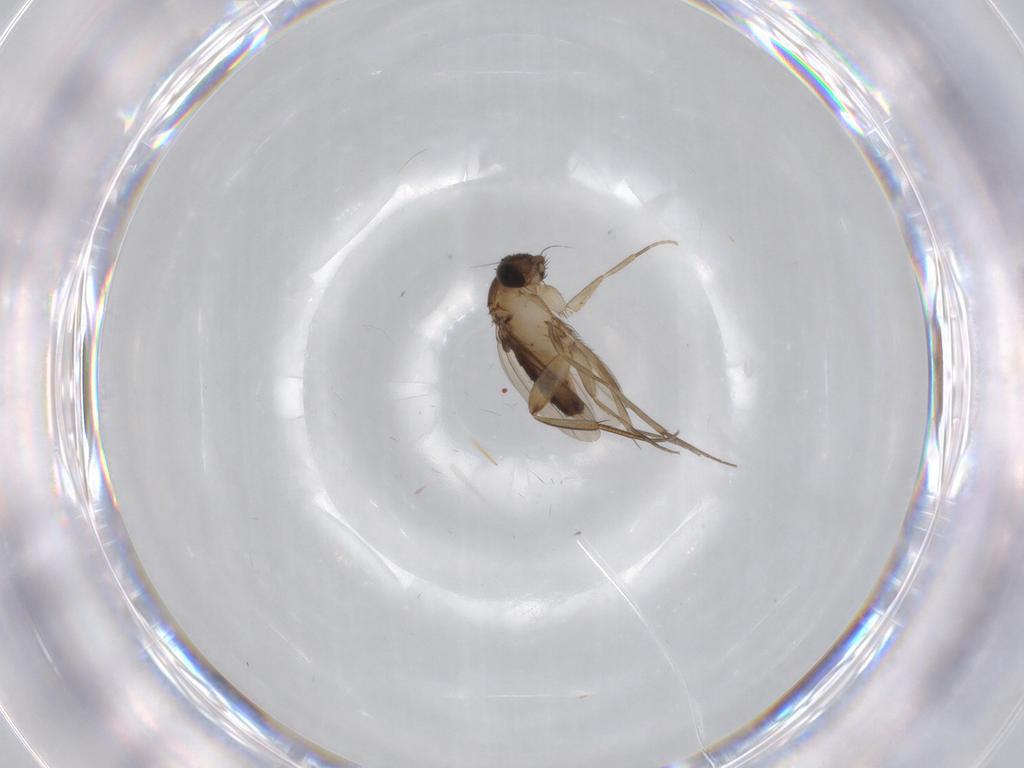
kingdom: Animalia
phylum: Arthropoda
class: Insecta
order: Diptera
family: Phoridae
